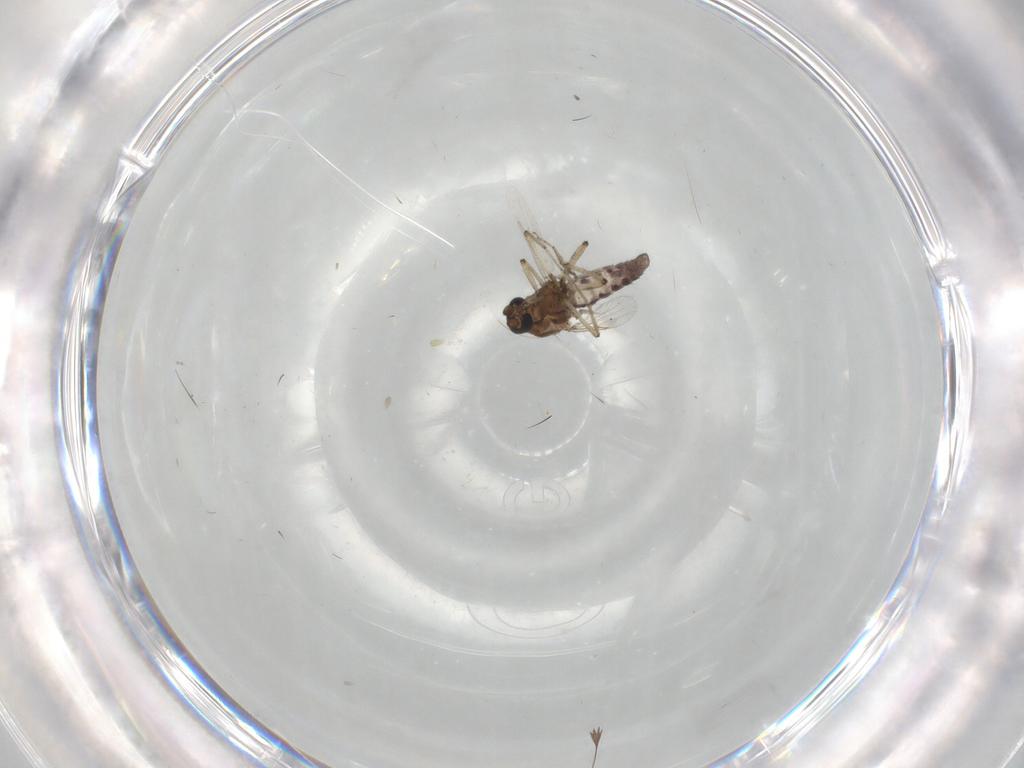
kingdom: Animalia
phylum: Arthropoda
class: Insecta
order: Diptera
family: Ceratopogonidae
